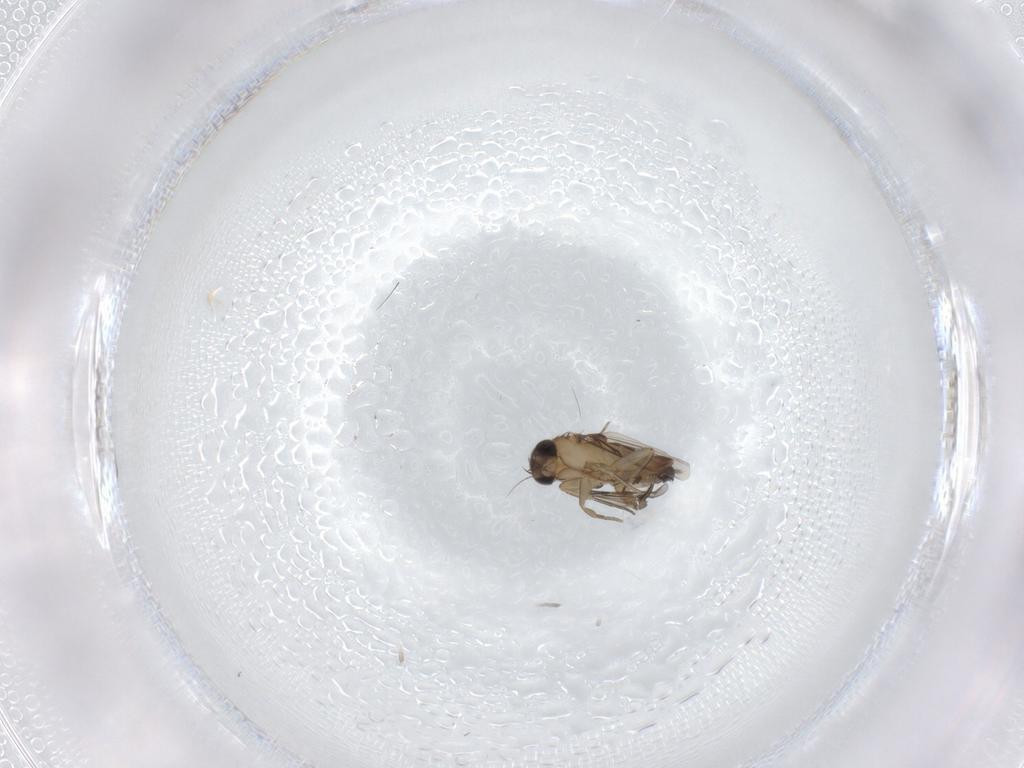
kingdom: Animalia
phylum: Arthropoda
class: Insecta
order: Diptera
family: Phoridae
